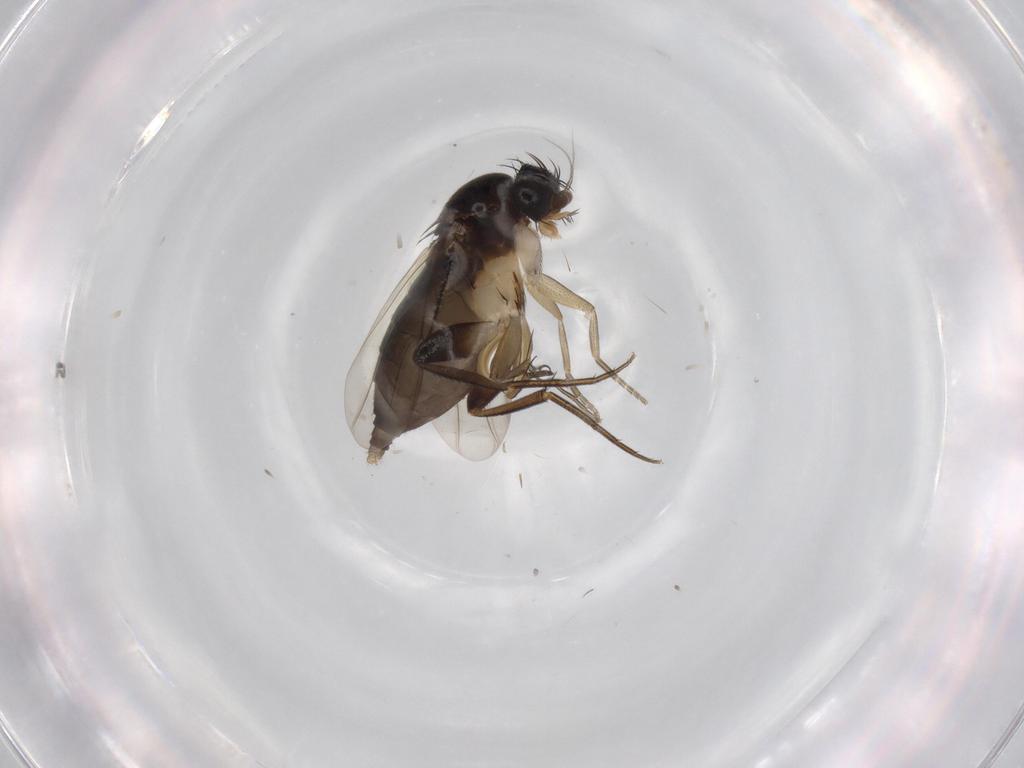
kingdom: Animalia
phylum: Arthropoda
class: Insecta
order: Diptera
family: Phoridae
